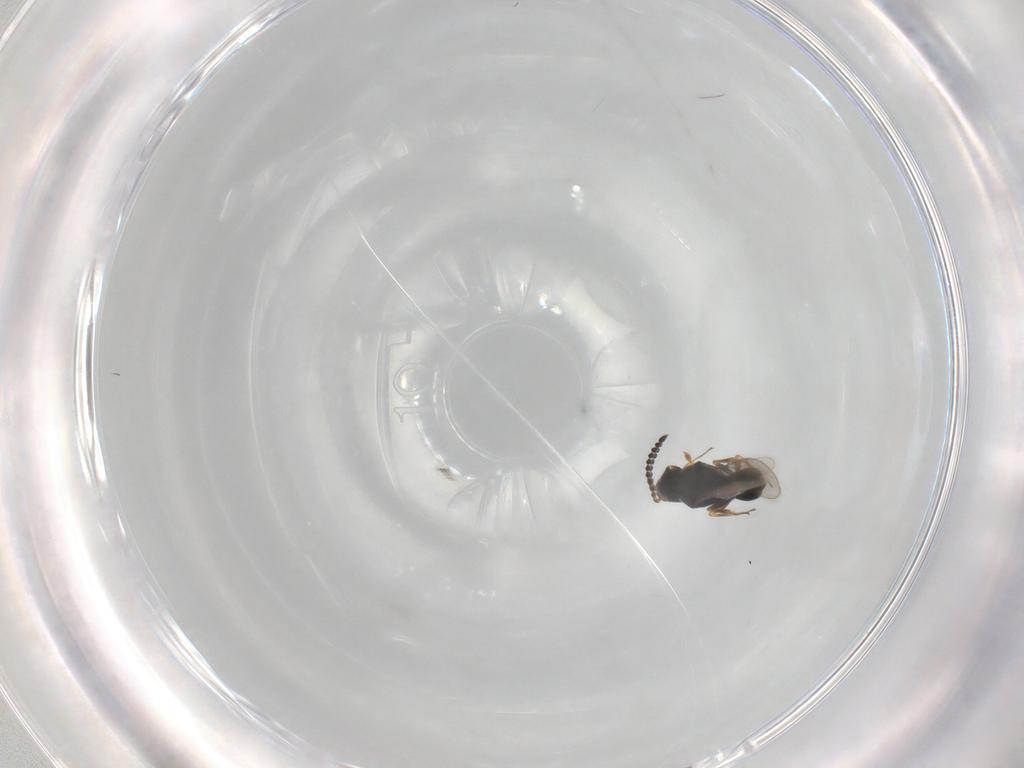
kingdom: Animalia
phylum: Arthropoda
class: Insecta
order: Hymenoptera
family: Scelionidae
